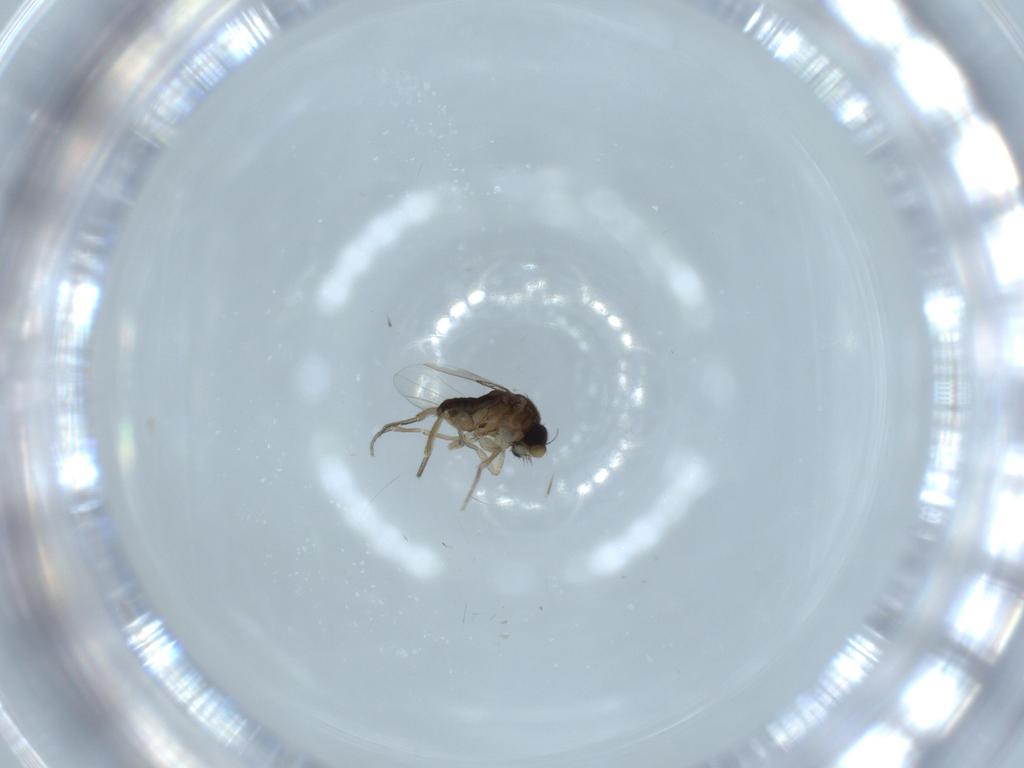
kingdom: Animalia
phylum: Arthropoda
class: Insecta
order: Diptera
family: Phoridae
